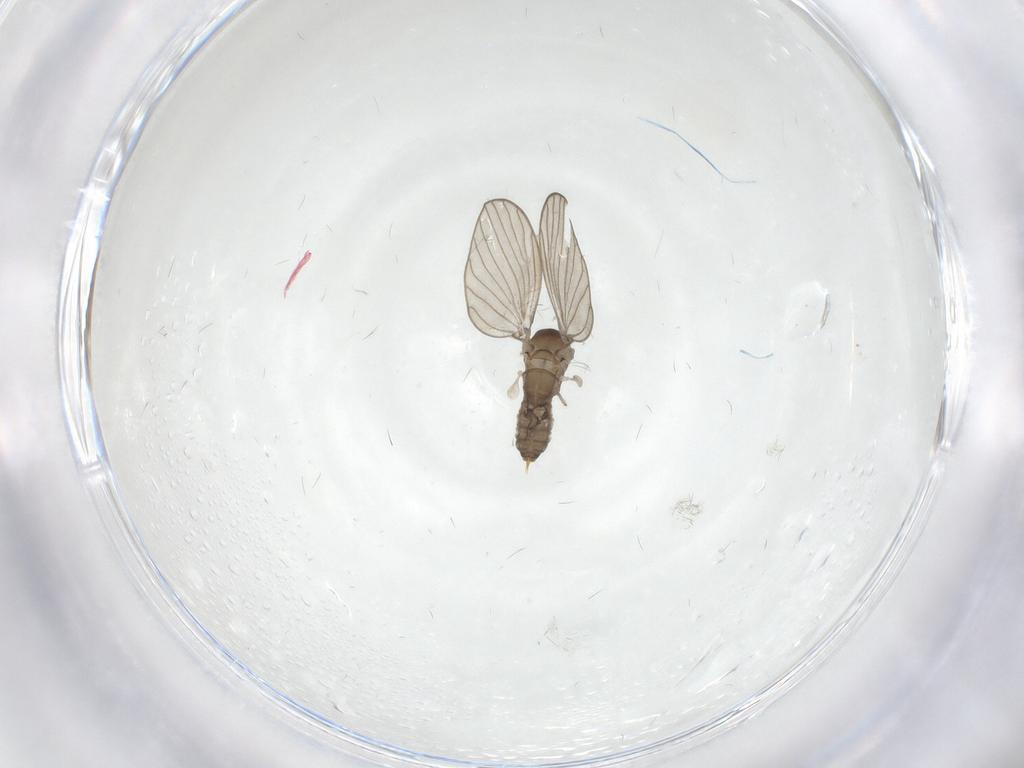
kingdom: Animalia
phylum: Arthropoda
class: Insecta
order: Diptera
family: Psychodidae
